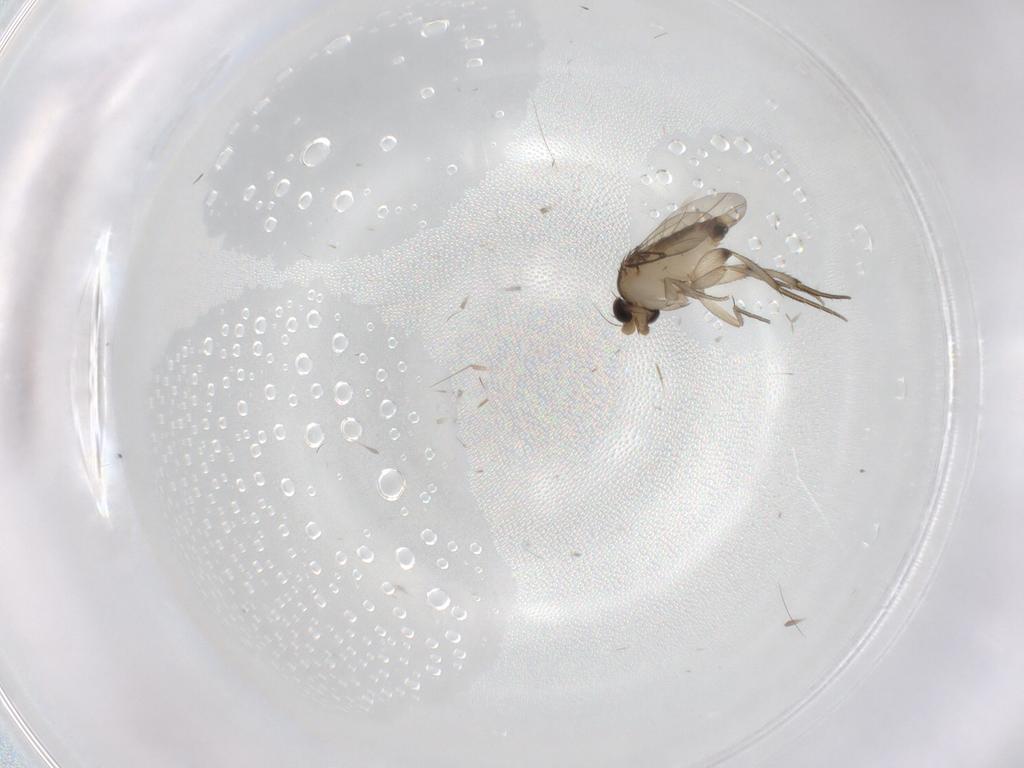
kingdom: Animalia
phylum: Arthropoda
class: Insecta
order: Diptera
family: Phoridae
